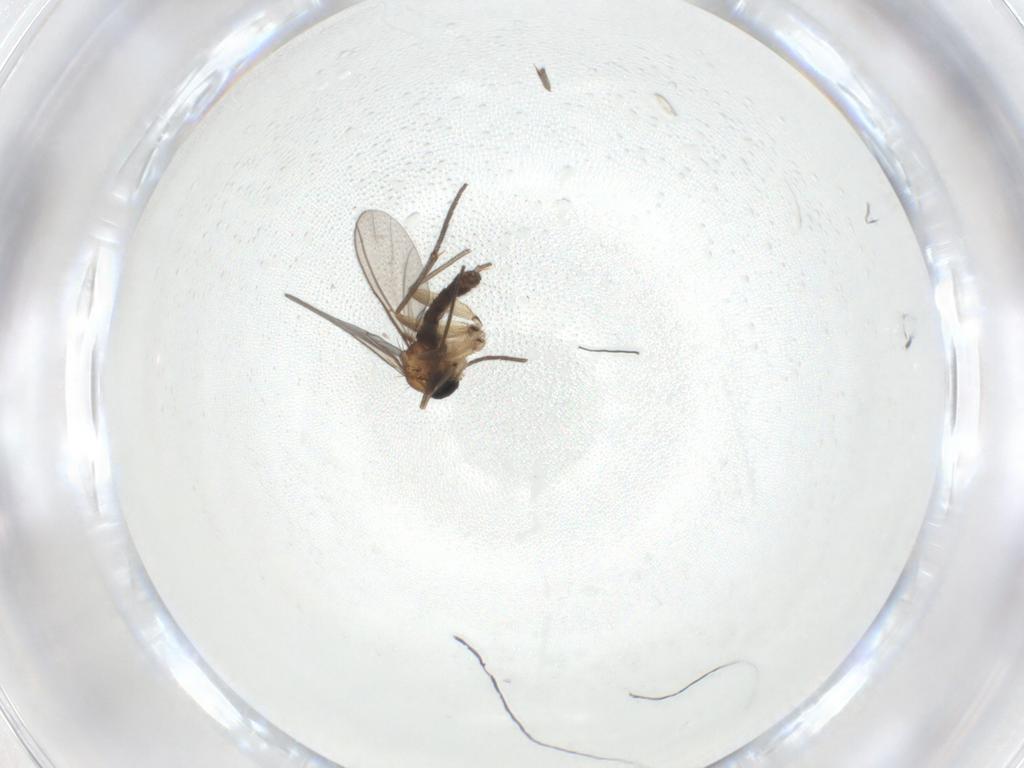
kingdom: Animalia
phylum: Arthropoda
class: Insecta
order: Diptera
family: Sciaridae
